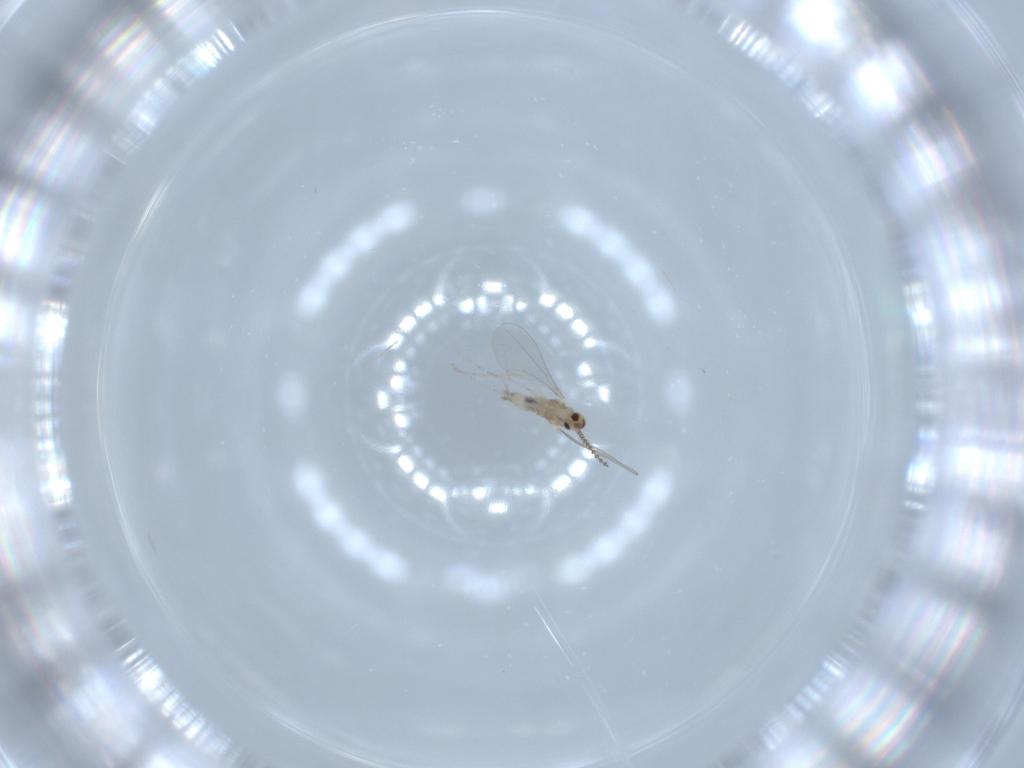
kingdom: Animalia
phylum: Arthropoda
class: Insecta
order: Diptera
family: Cecidomyiidae
